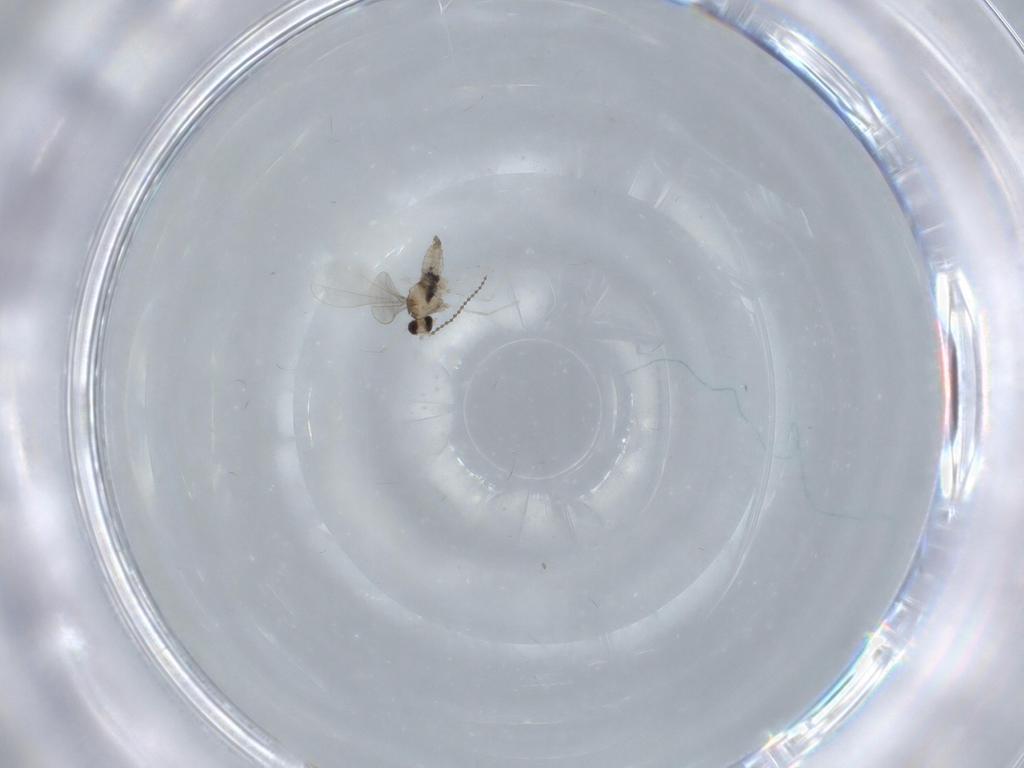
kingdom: Animalia
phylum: Arthropoda
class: Insecta
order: Diptera
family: Cecidomyiidae
